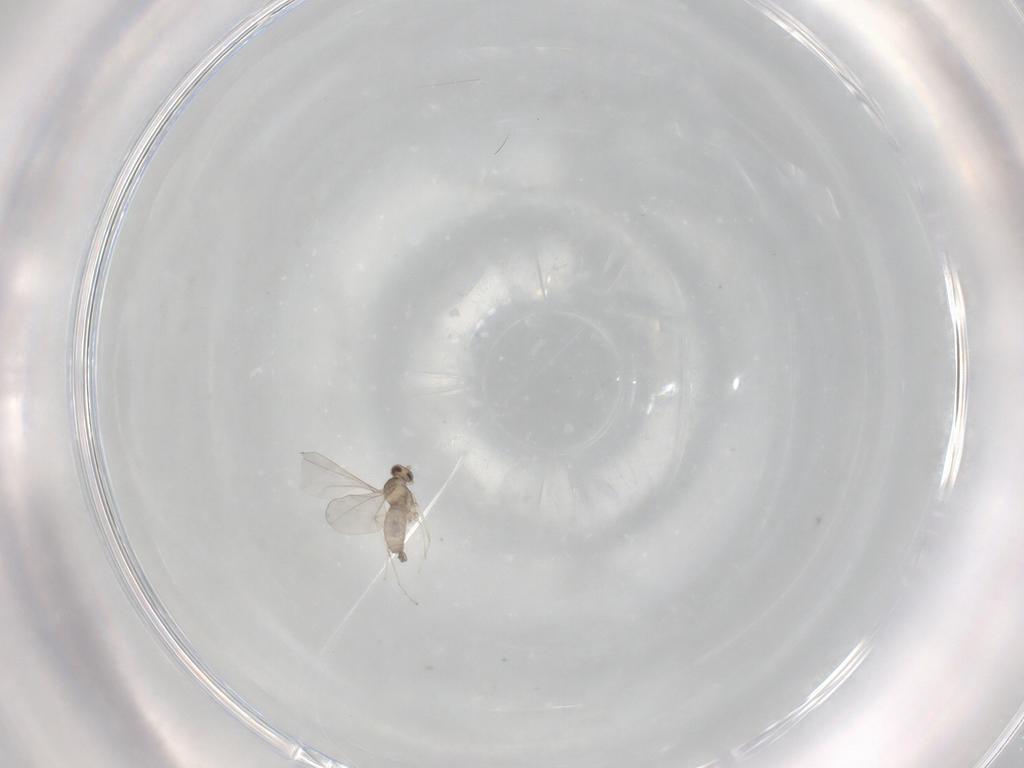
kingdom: Animalia
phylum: Arthropoda
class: Insecta
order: Diptera
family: Cecidomyiidae
